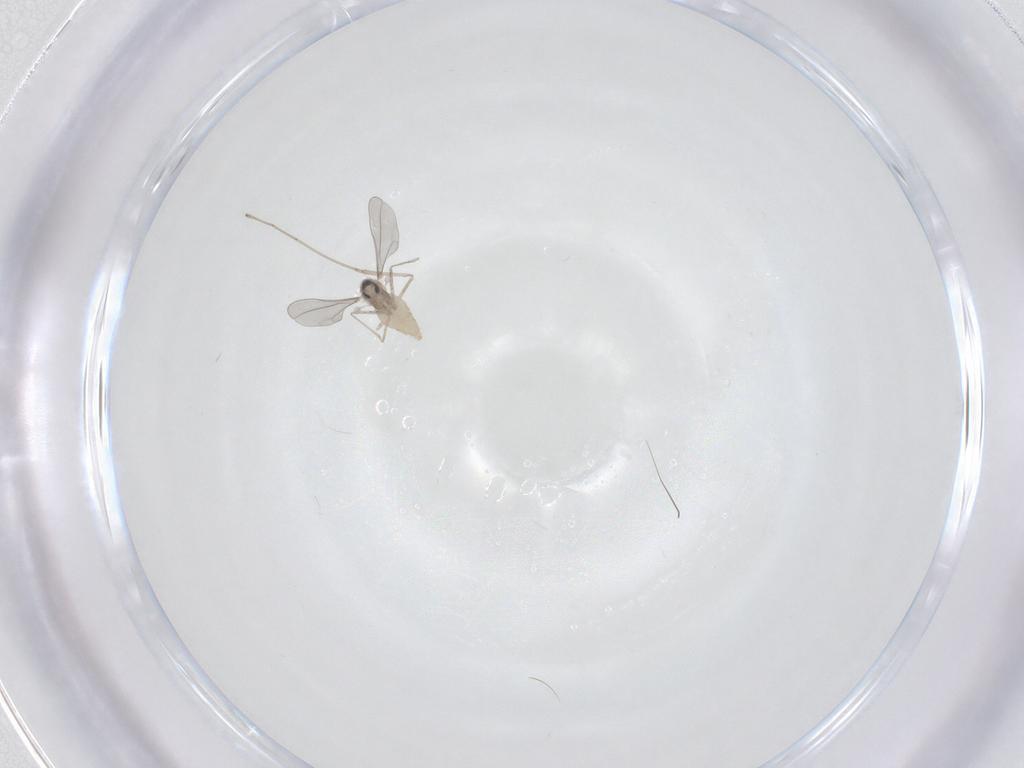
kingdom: Animalia
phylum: Arthropoda
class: Insecta
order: Diptera
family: Cecidomyiidae
